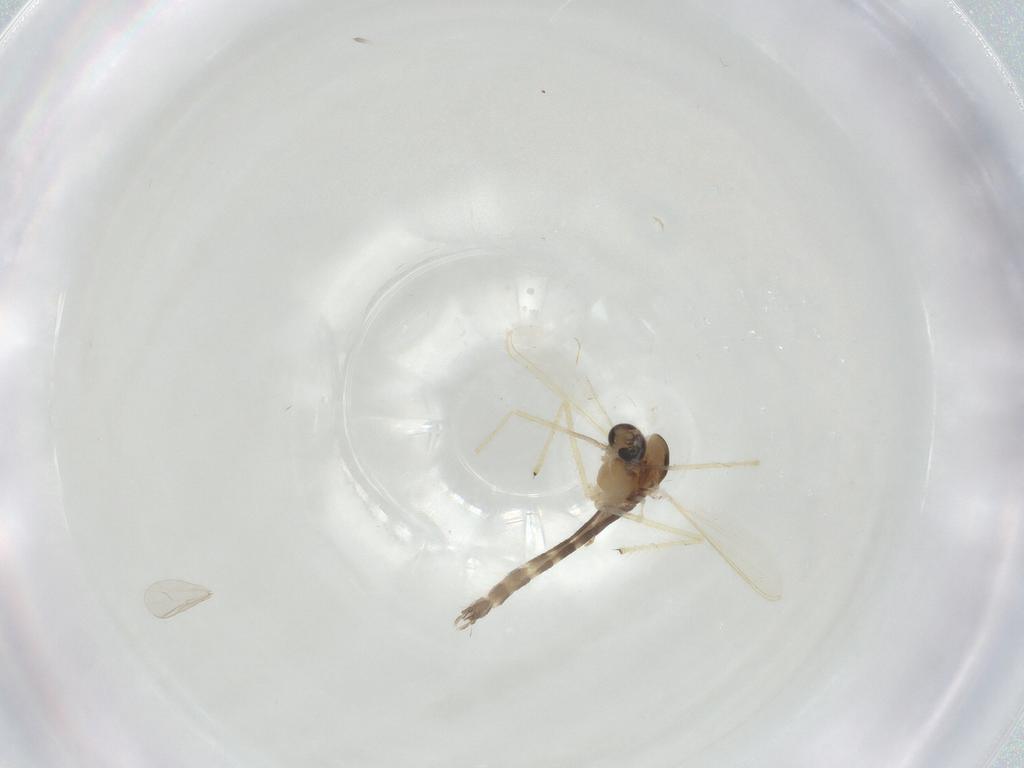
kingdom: Animalia
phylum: Arthropoda
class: Insecta
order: Diptera
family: Chironomidae
